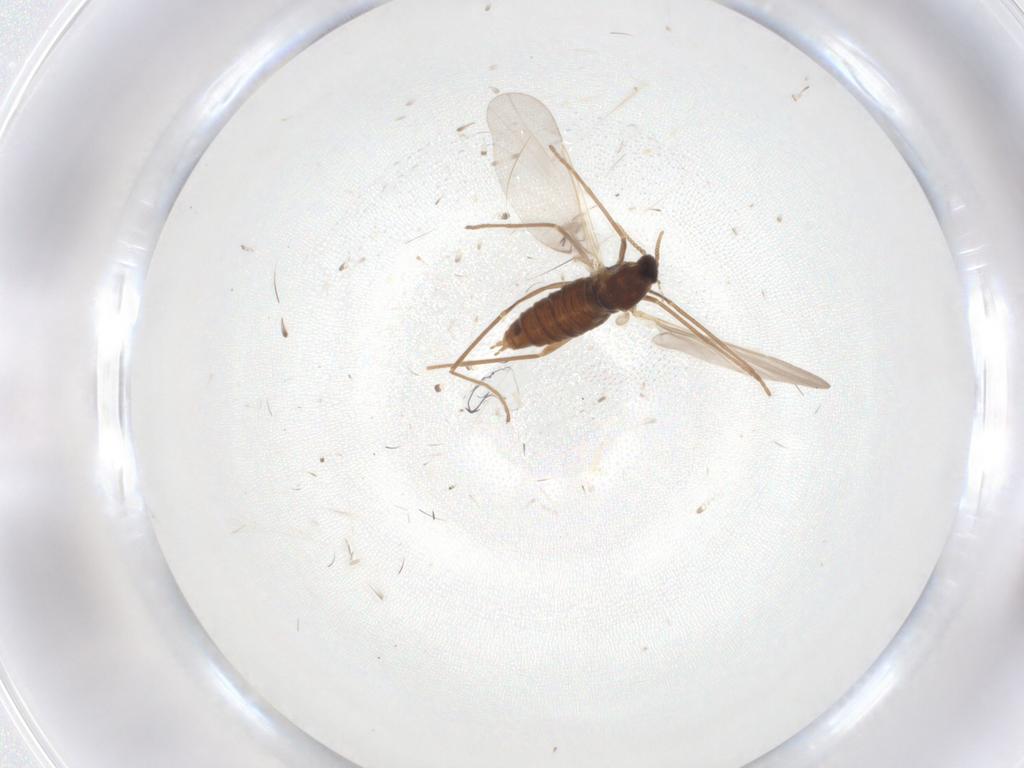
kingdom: Animalia
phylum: Arthropoda
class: Insecta
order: Diptera
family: Cecidomyiidae
